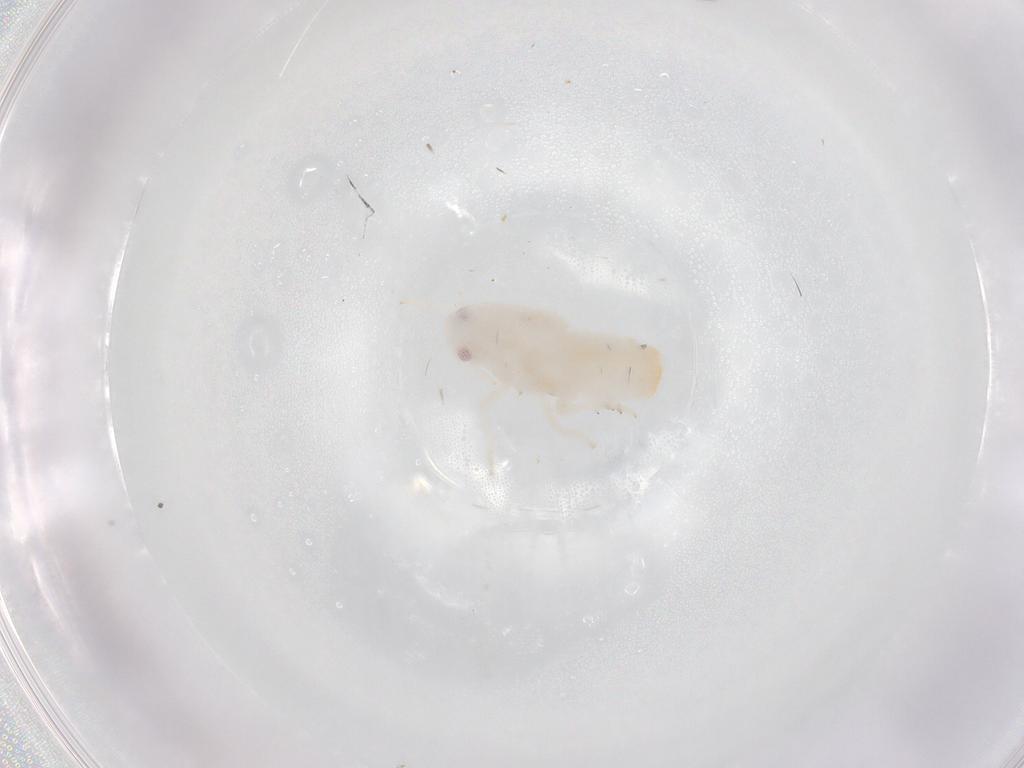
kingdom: Animalia
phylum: Arthropoda
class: Insecta
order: Hemiptera
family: Flatidae
